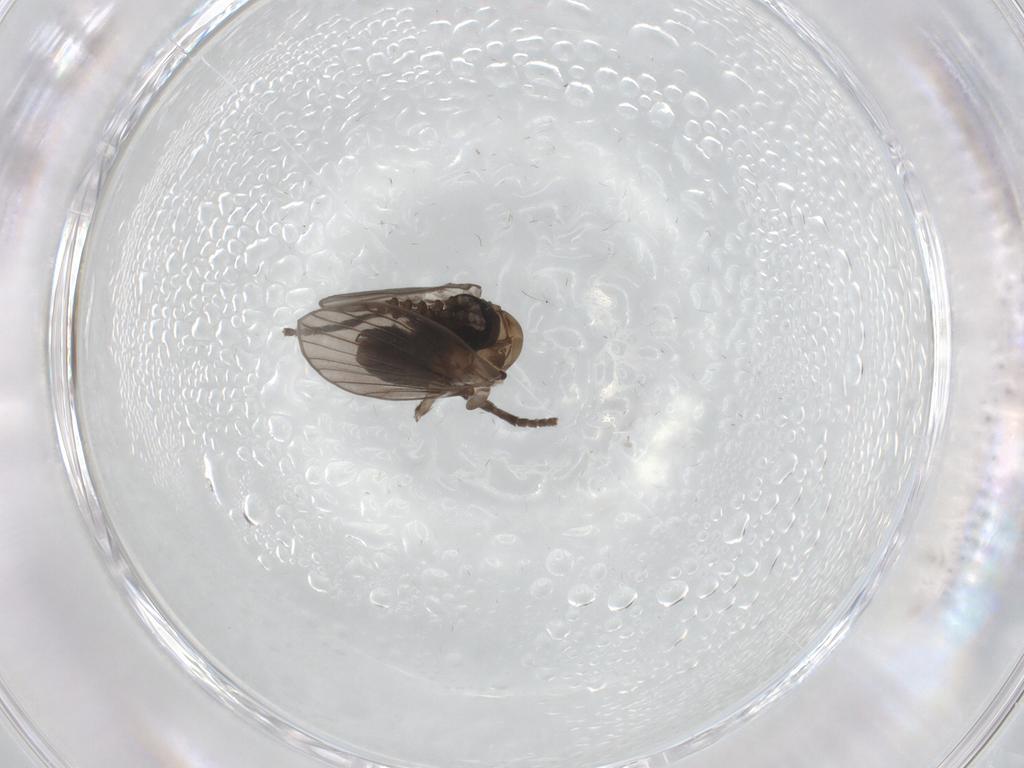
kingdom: Animalia
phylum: Arthropoda
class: Insecta
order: Diptera
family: Psychodidae
